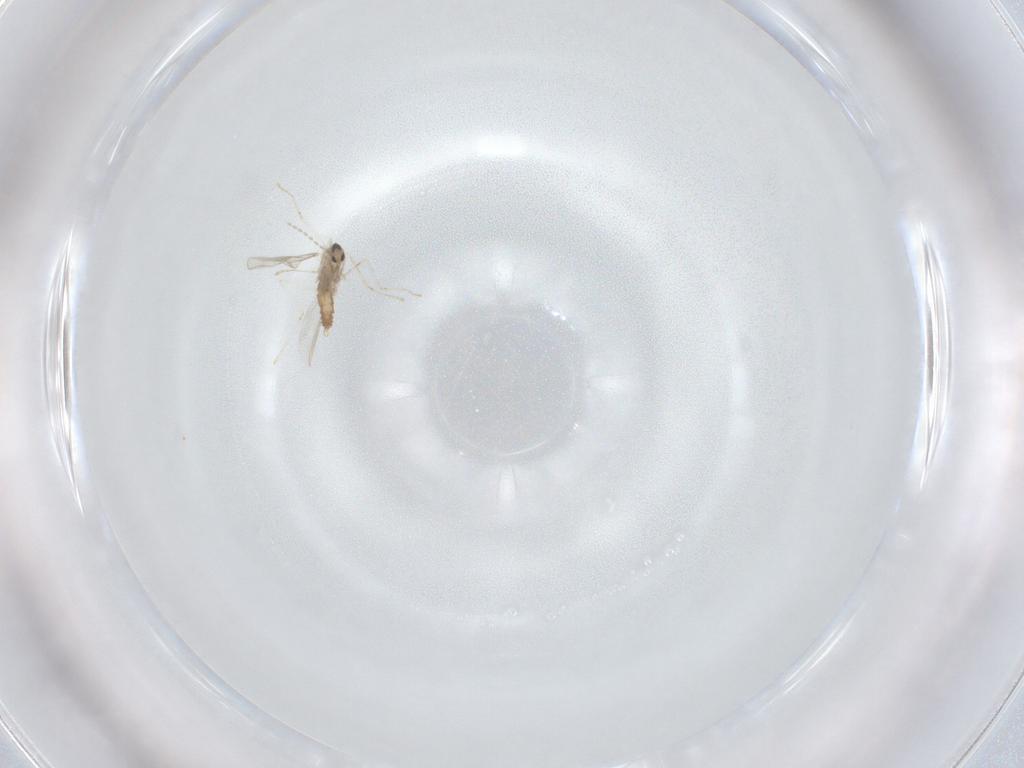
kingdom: Animalia
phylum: Arthropoda
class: Insecta
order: Diptera
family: Cecidomyiidae
